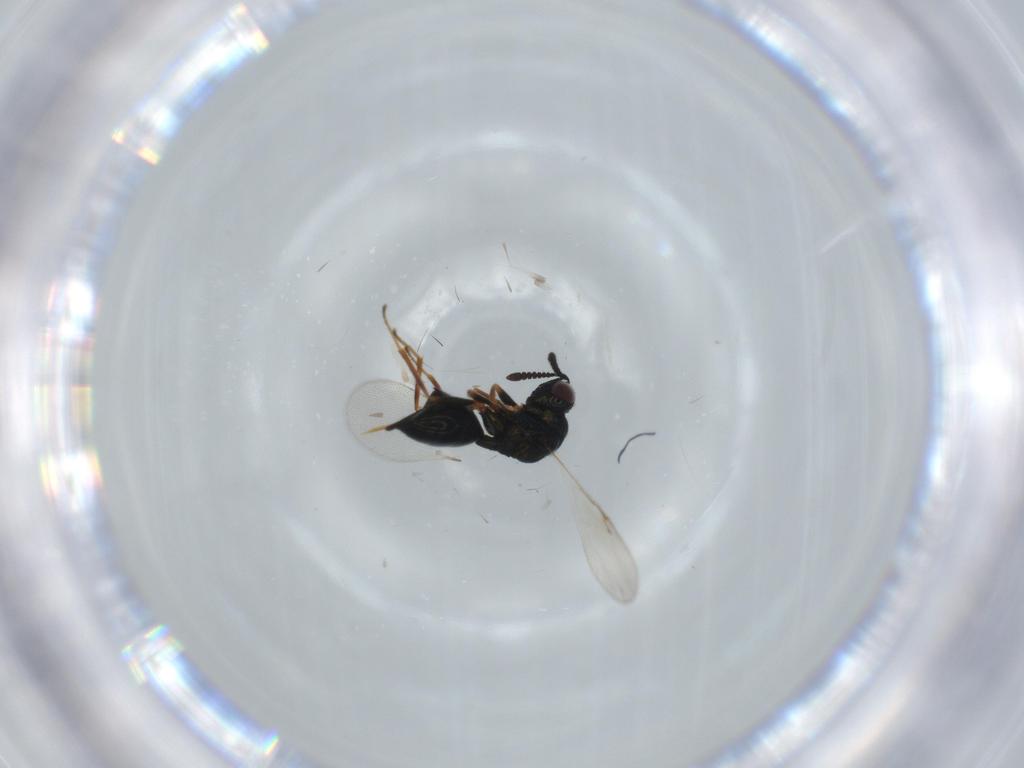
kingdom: Animalia
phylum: Arthropoda
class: Insecta
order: Hymenoptera
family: Chalcidoidea_incertae_sedis
